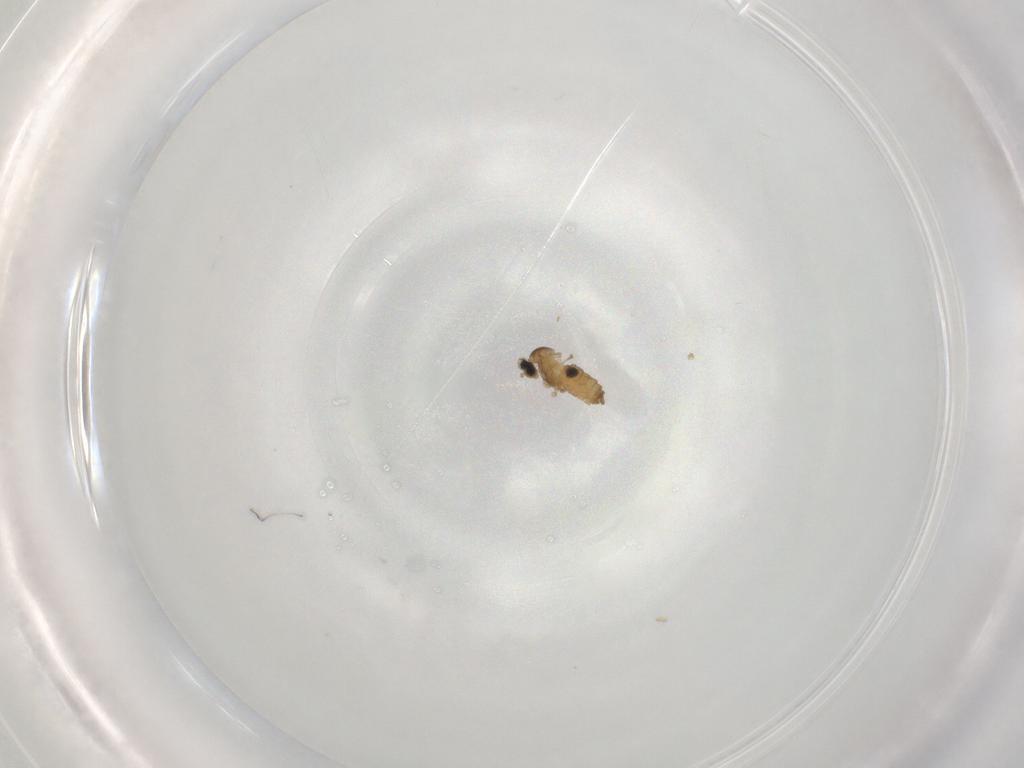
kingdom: Animalia
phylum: Arthropoda
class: Insecta
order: Diptera
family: Cecidomyiidae
